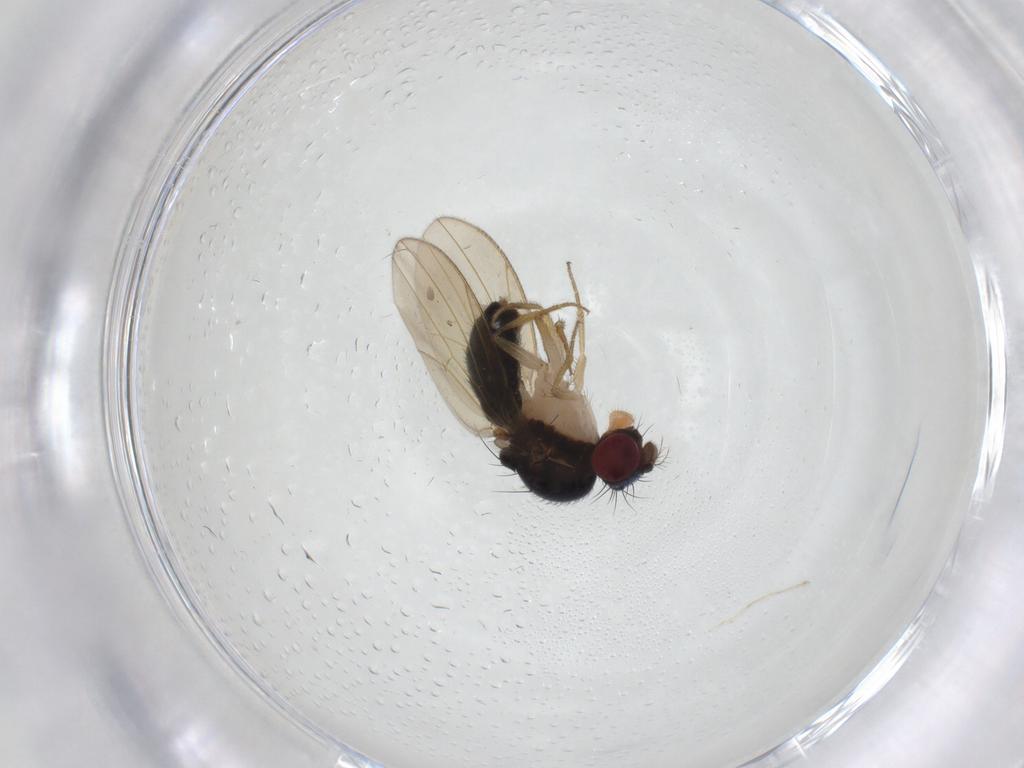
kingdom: Animalia
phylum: Arthropoda
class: Insecta
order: Diptera
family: Drosophilidae
